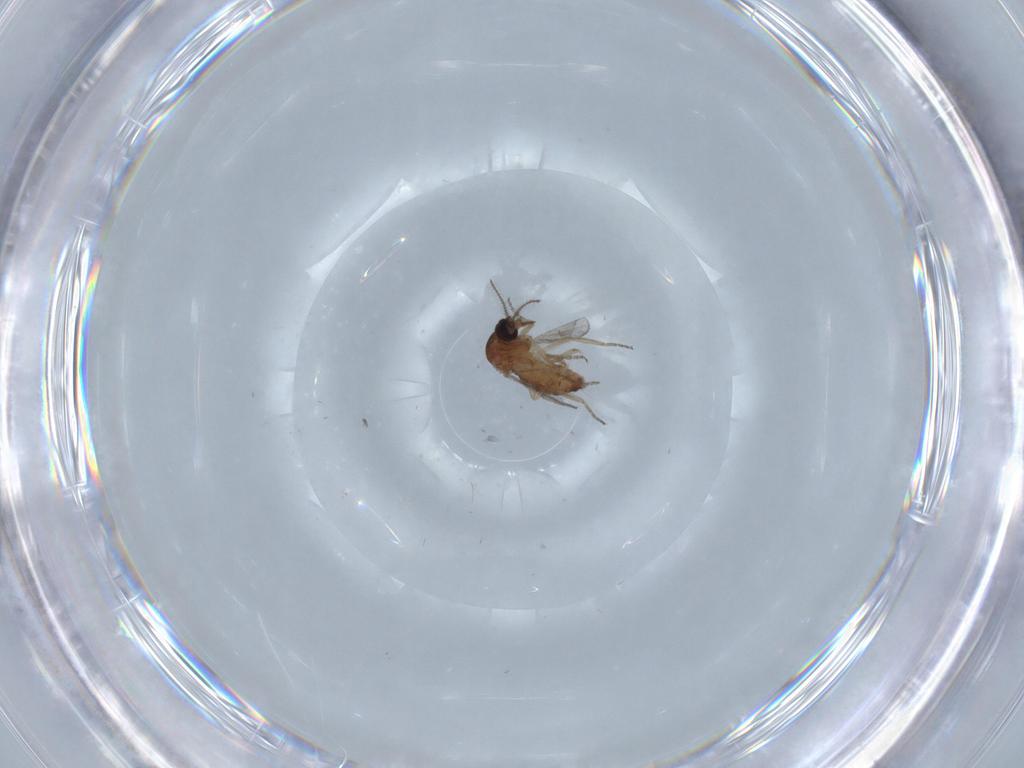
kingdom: Animalia
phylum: Arthropoda
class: Insecta
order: Diptera
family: Ceratopogonidae
